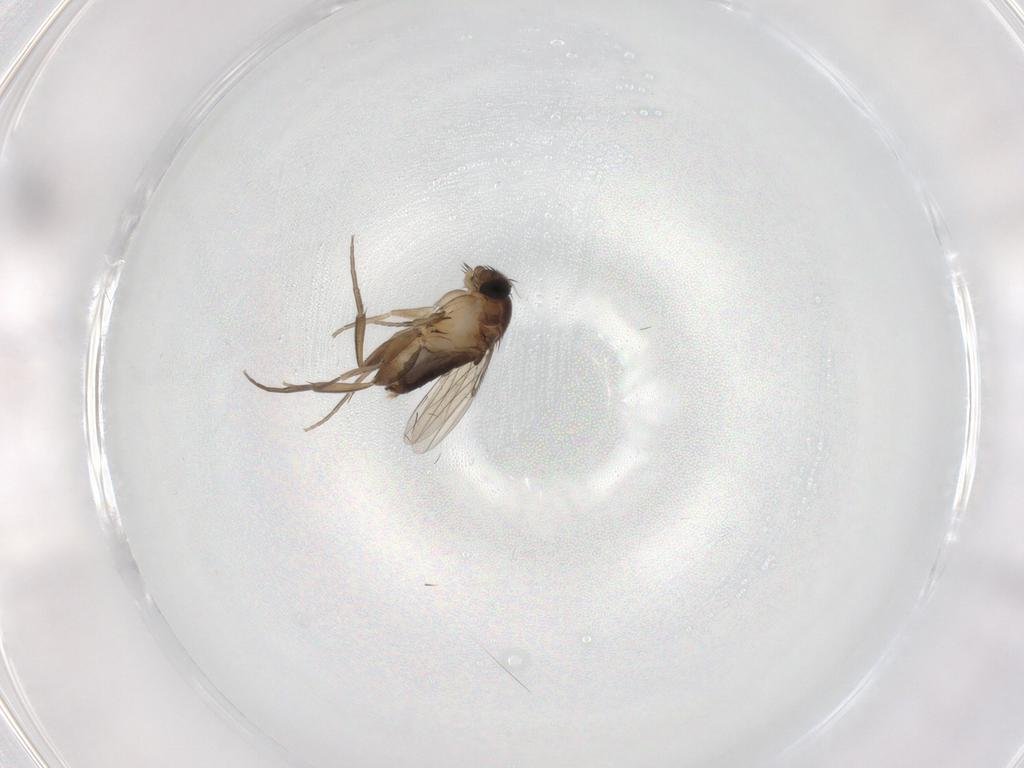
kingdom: Animalia
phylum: Arthropoda
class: Insecta
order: Diptera
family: Phoridae
